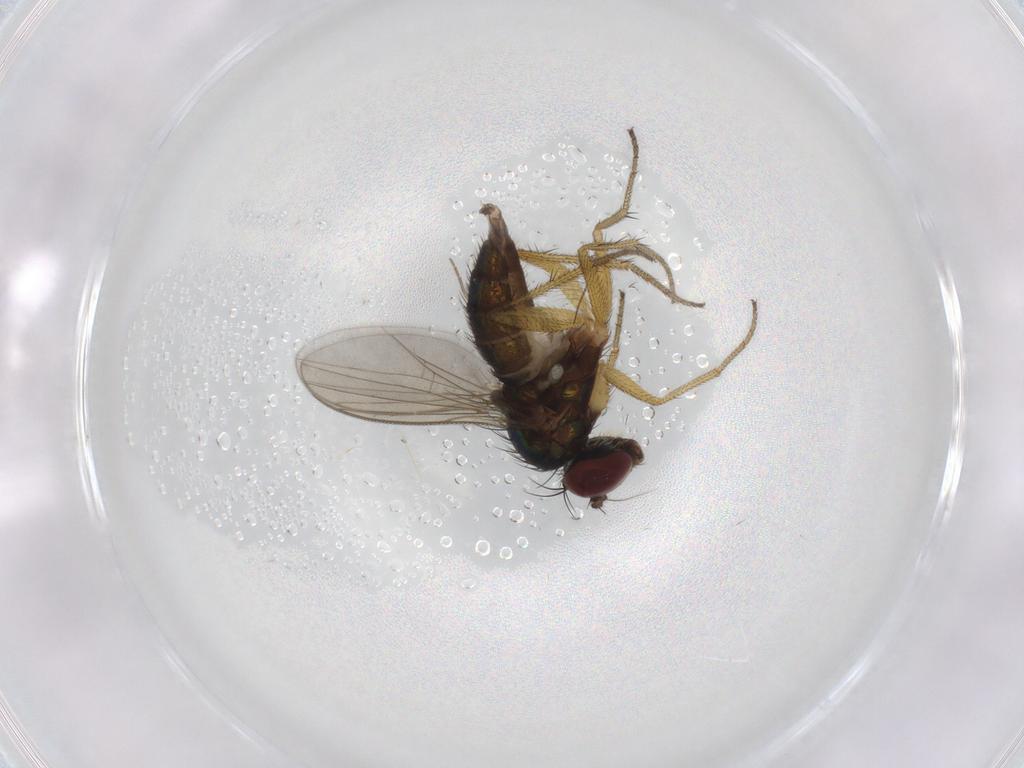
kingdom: Animalia
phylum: Arthropoda
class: Insecta
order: Diptera
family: Dolichopodidae
